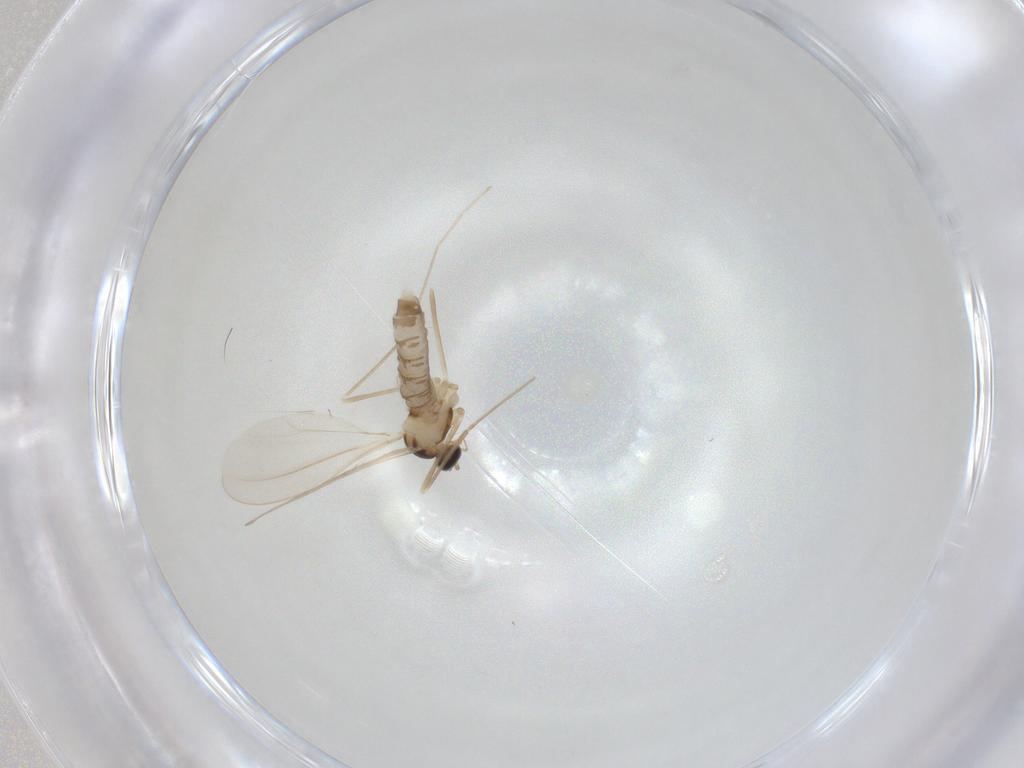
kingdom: Animalia
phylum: Arthropoda
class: Insecta
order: Diptera
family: Cecidomyiidae
